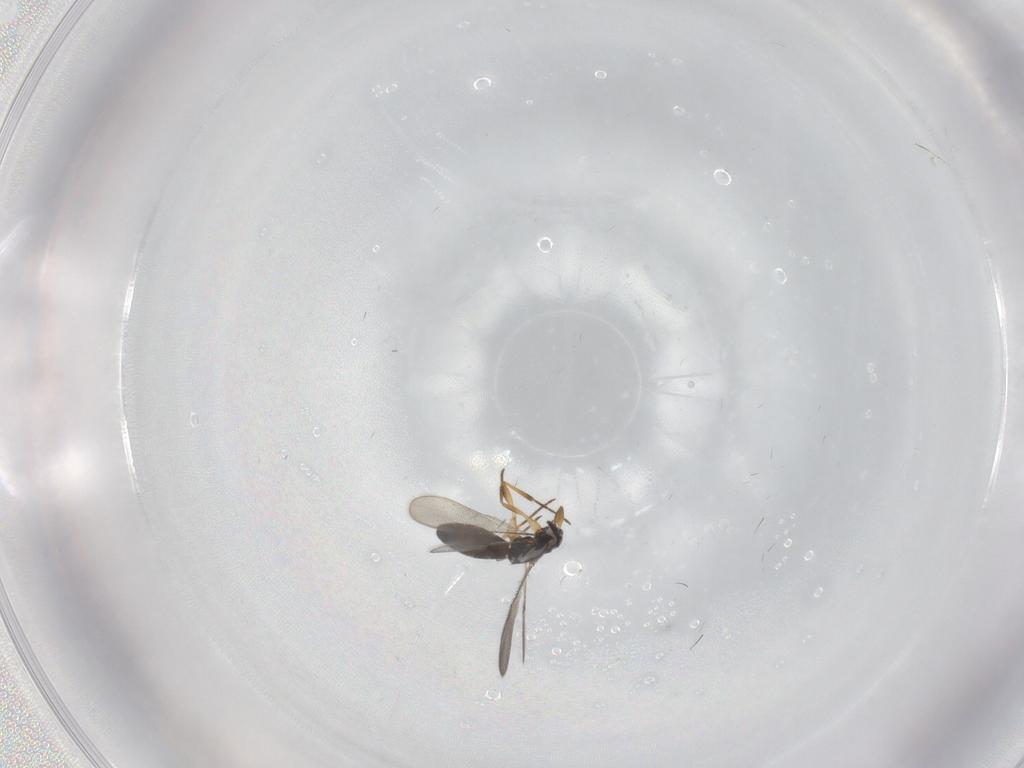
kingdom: Animalia
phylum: Arthropoda
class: Insecta
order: Hymenoptera
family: Scelionidae
